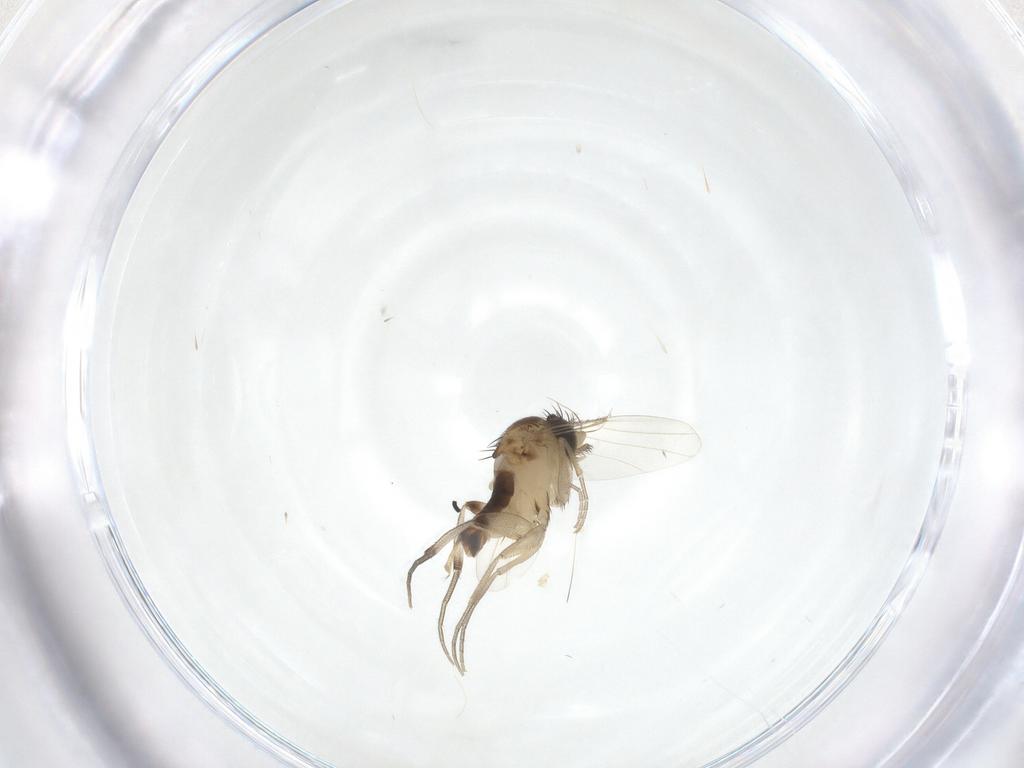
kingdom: Animalia
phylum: Arthropoda
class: Insecta
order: Diptera
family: Phoridae
